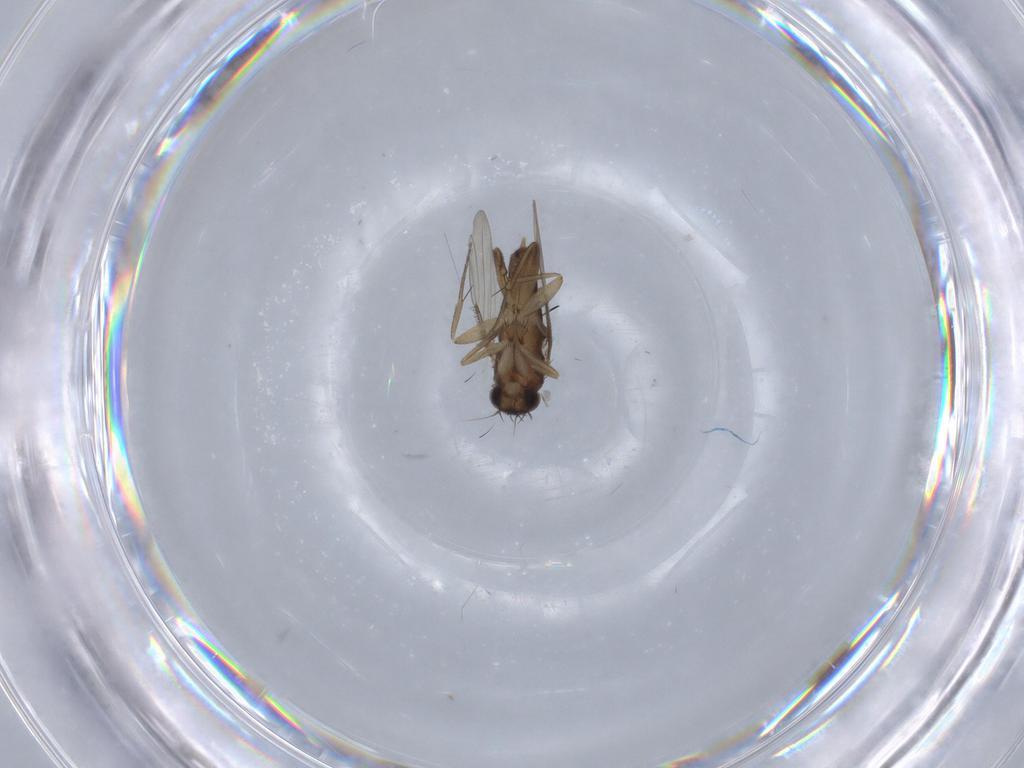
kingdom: Animalia
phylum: Arthropoda
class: Insecta
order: Diptera
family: Phoridae
